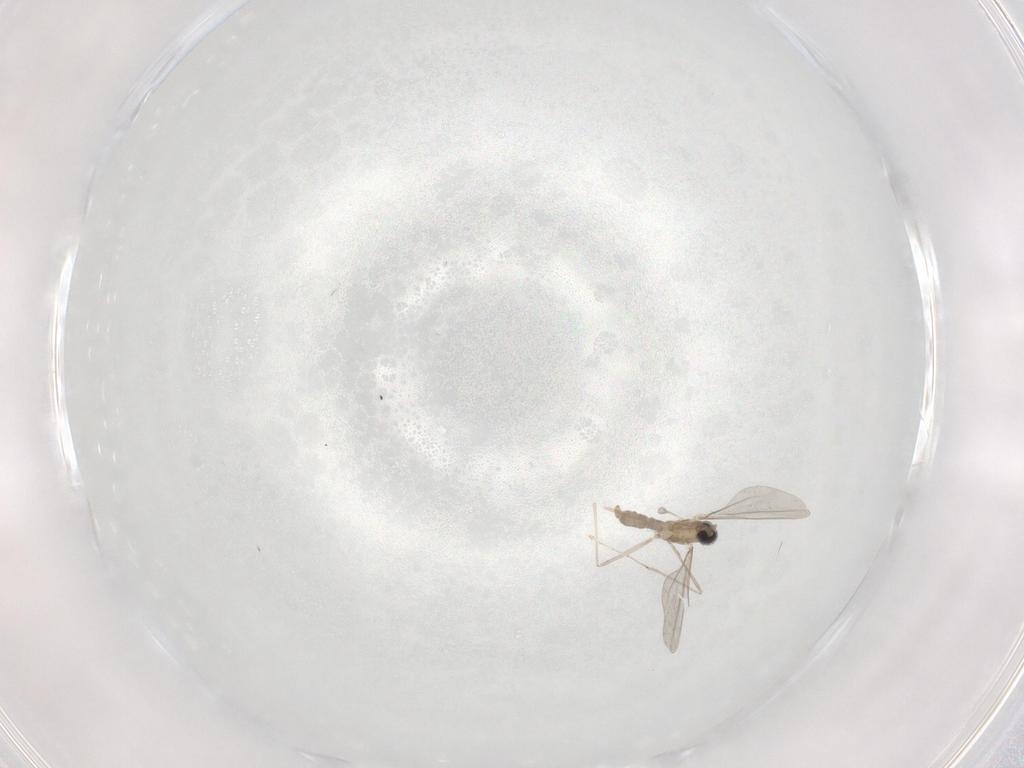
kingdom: Animalia
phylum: Arthropoda
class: Insecta
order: Diptera
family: Cecidomyiidae
